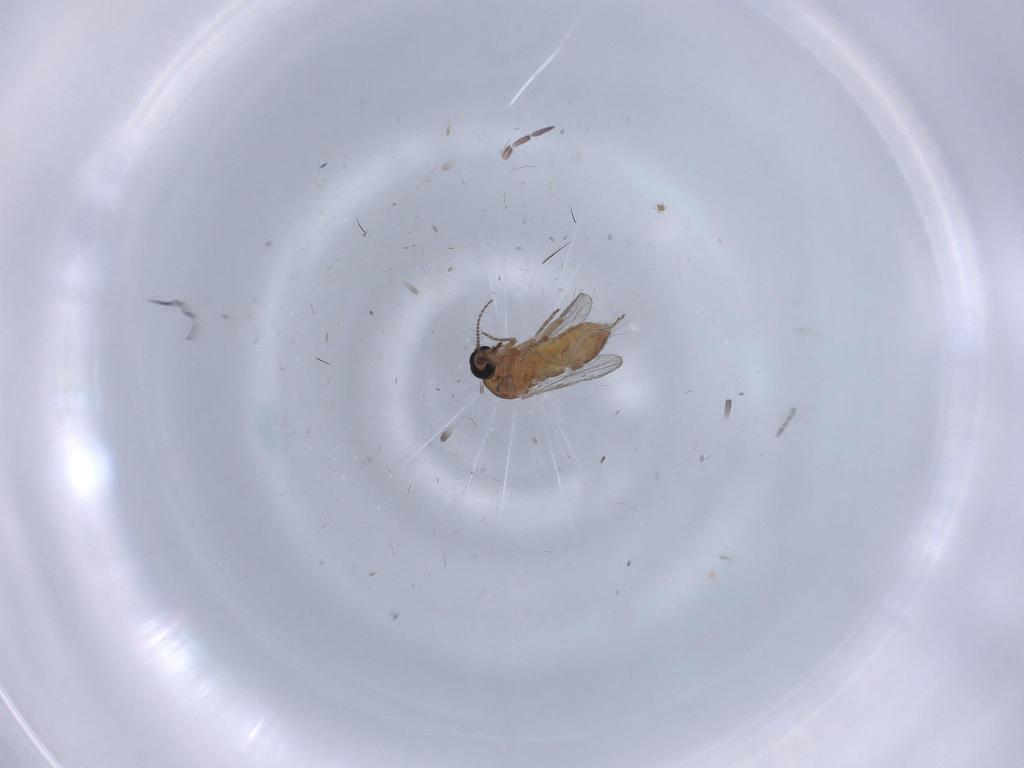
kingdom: Animalia
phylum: Arthropoda
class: Insecta
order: Diptera
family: Ceratopogonidae
